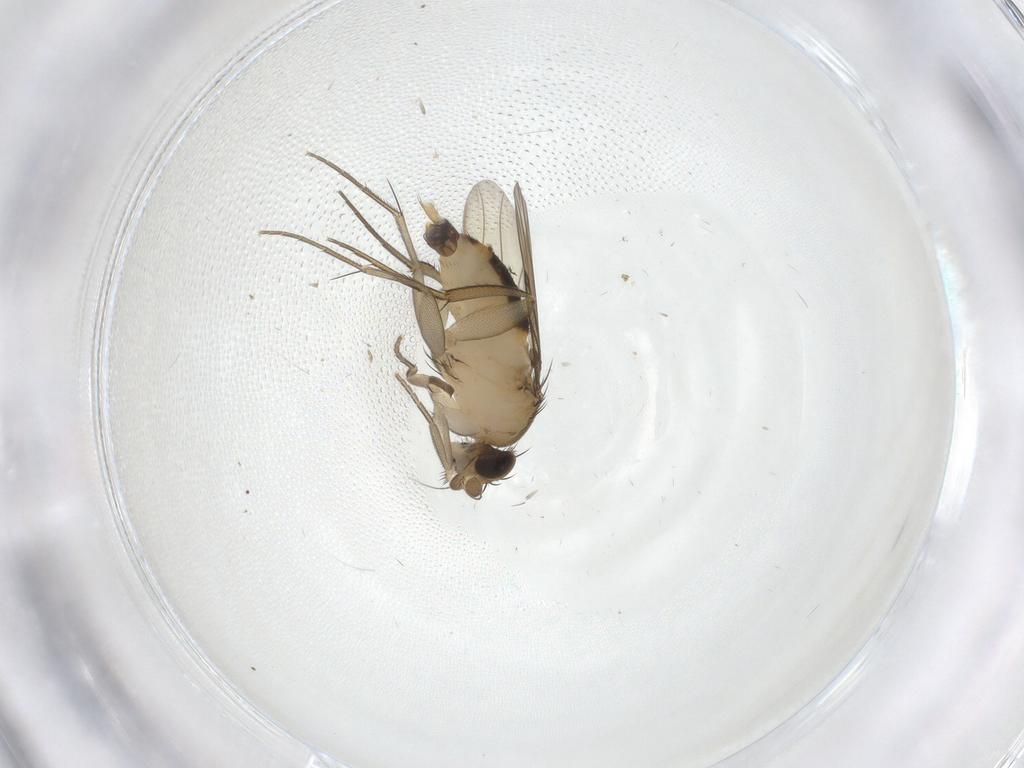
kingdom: Animalia
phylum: Arthropoda
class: Insecta
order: Diptera
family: Phoridae
